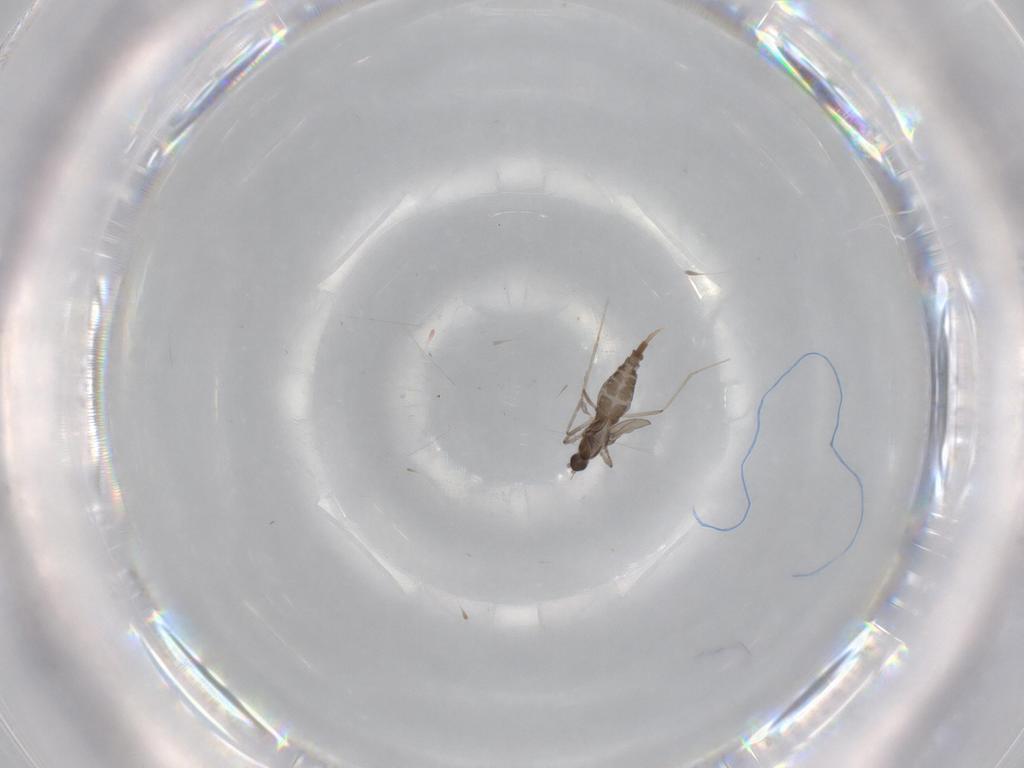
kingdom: Animalia
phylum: Arthropoda
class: Insecta
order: Diptera
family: Cecidomyiidae
